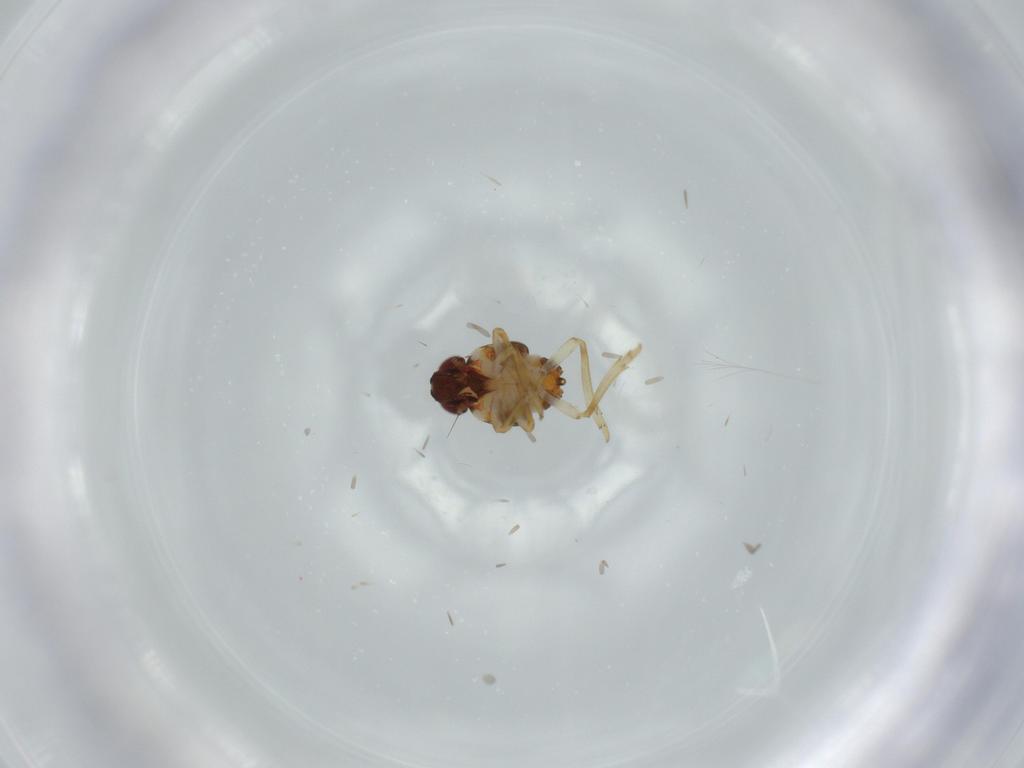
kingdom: Animalia
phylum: Arthropoda
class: Insecta
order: Hemiptera
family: Issidae
